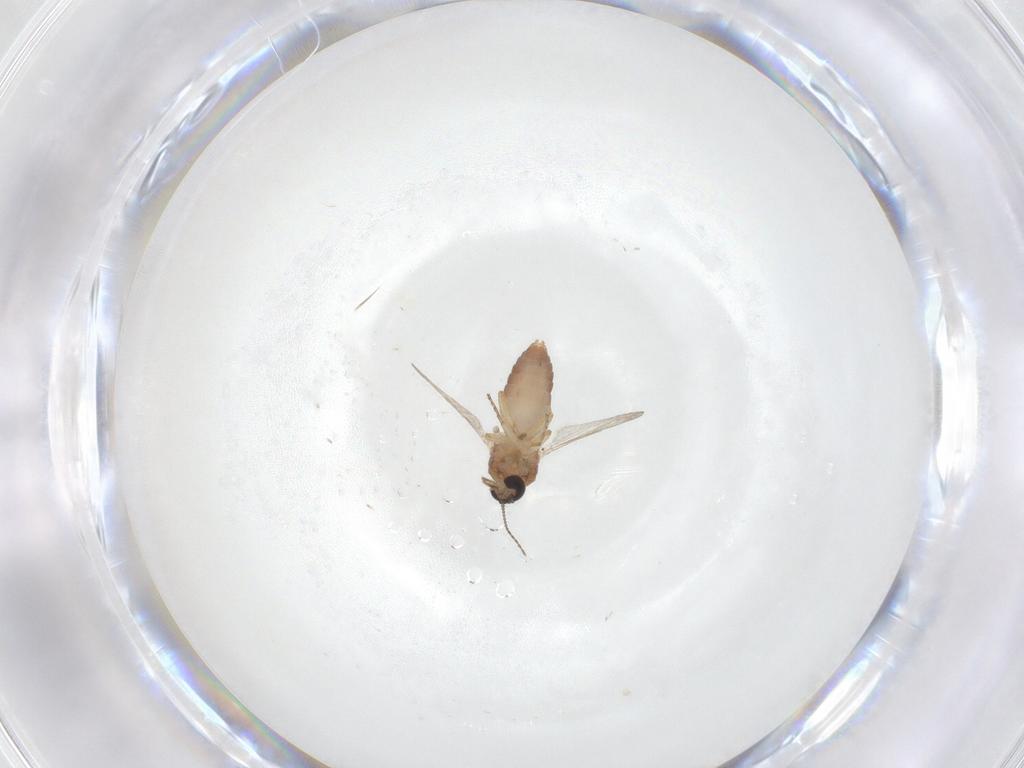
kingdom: Animalia
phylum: Arthropoda
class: Insecta
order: Diptera
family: Ceratopogonidae
